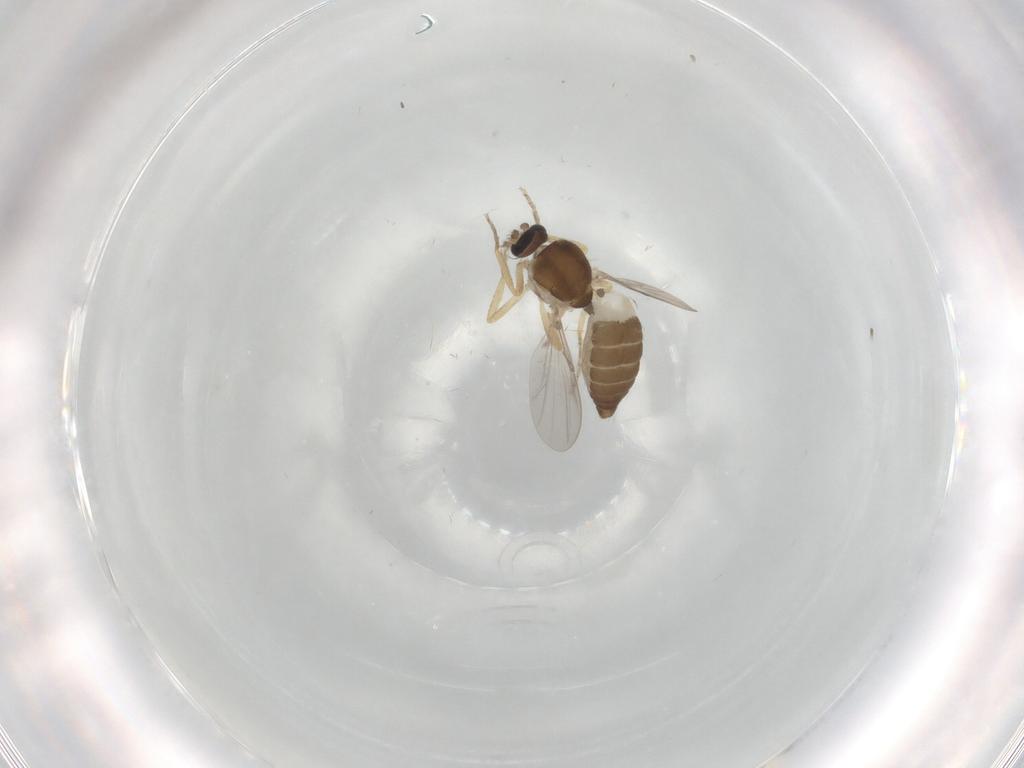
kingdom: Animalia
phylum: Arthropoda
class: Insecta
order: Diptera
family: Ceratopogonidae
